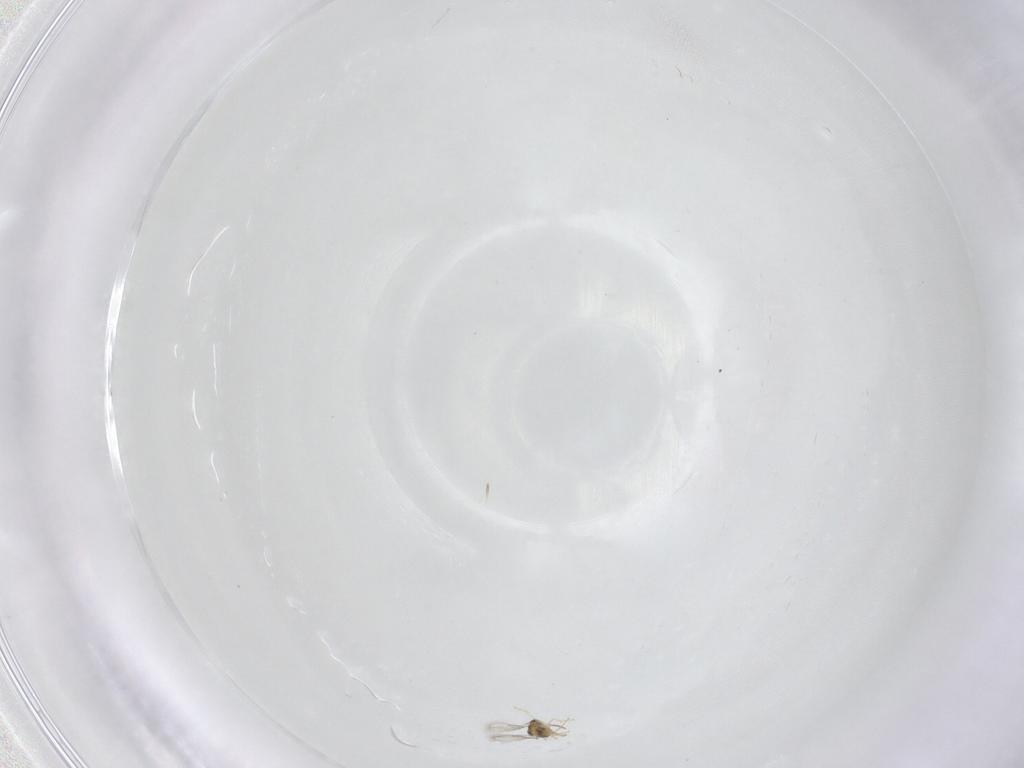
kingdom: Animalia
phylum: Arthropoda
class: Insecta
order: Hymenoptera
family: Aphelinidae
